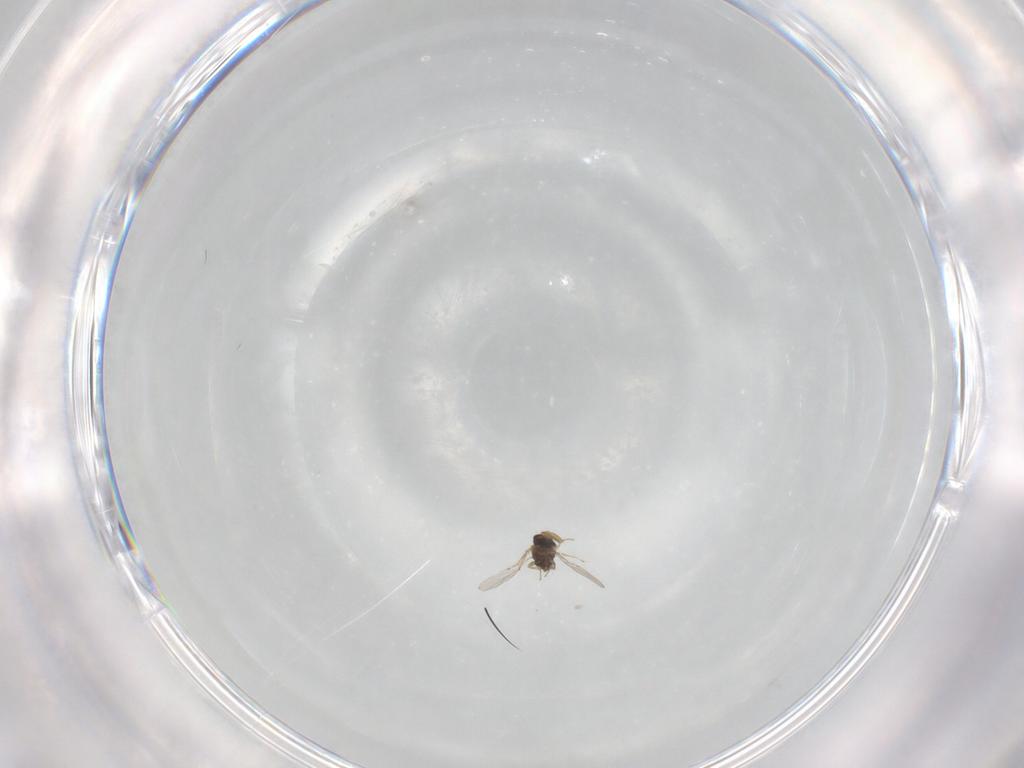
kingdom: Animalia
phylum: Arthropoda
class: Insecta
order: Hymenoptera
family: Encyrtidae
